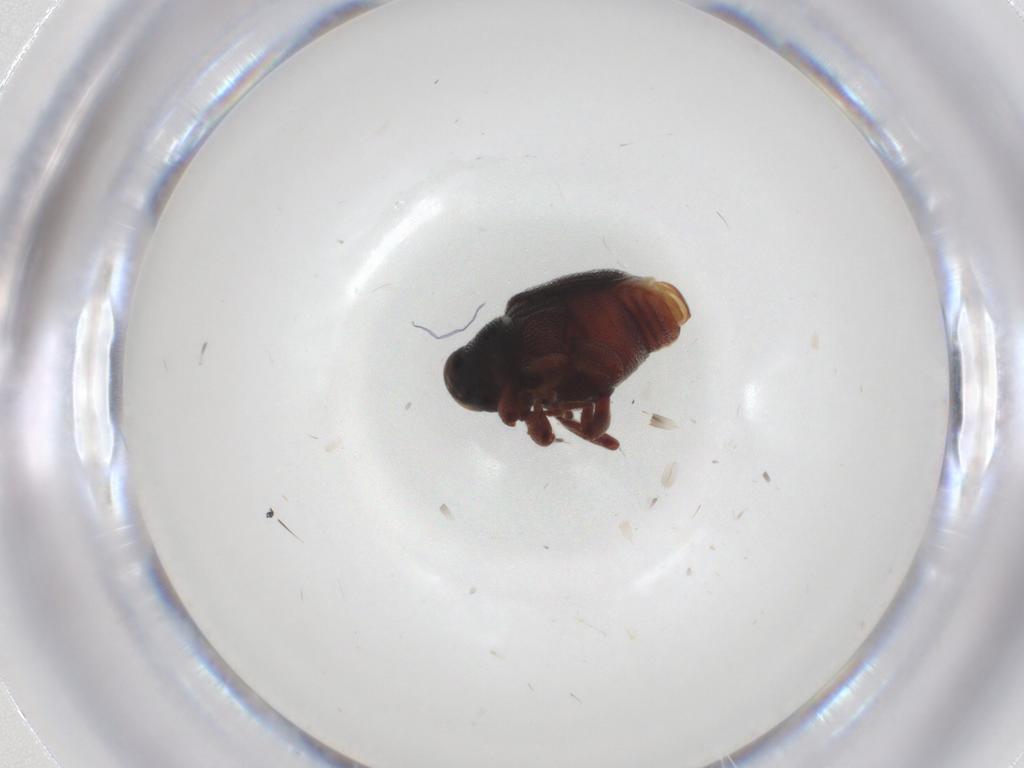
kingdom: Animalia
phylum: Arthropoda
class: Insecta
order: Coleoptera
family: Curculionidae
